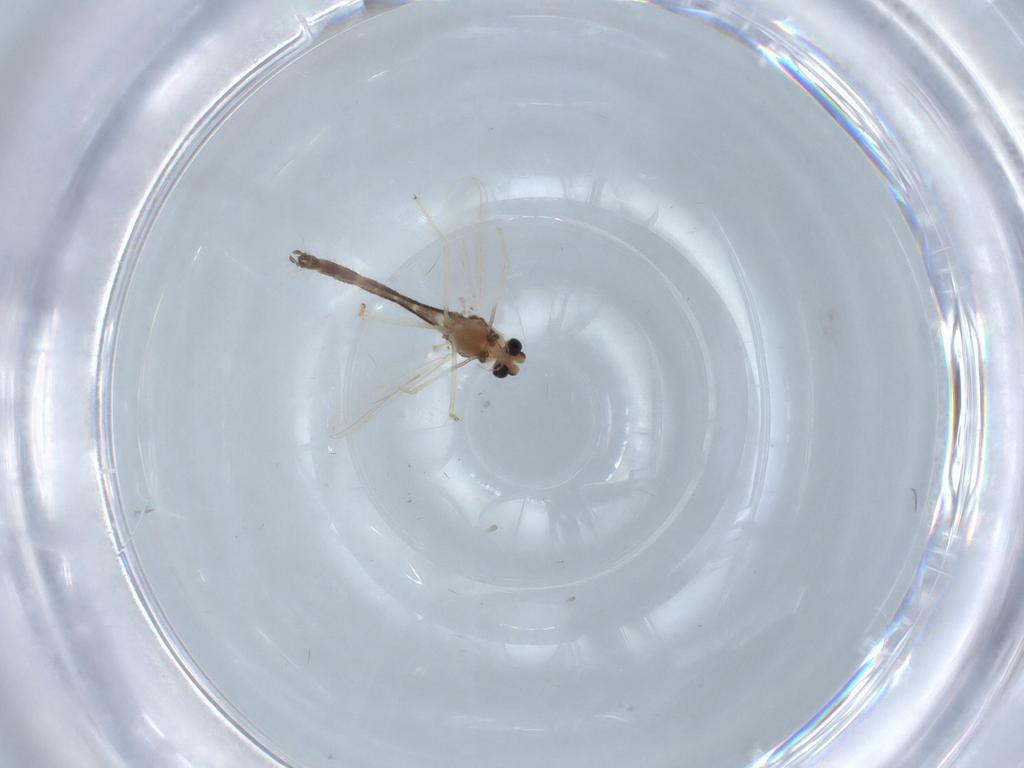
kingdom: Animalia
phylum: Arthropoda
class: Insecta
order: Diptera
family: Chironomidae
